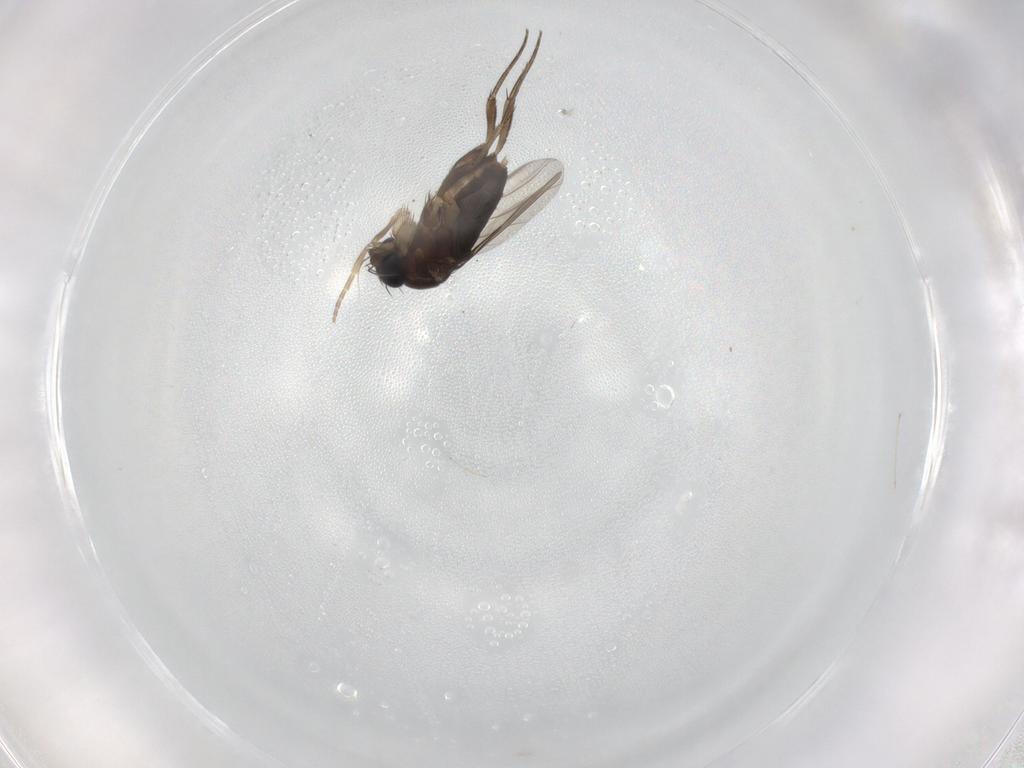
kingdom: Animalia
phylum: Arthropoda
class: Insecta
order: Diptera
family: Phoridae
